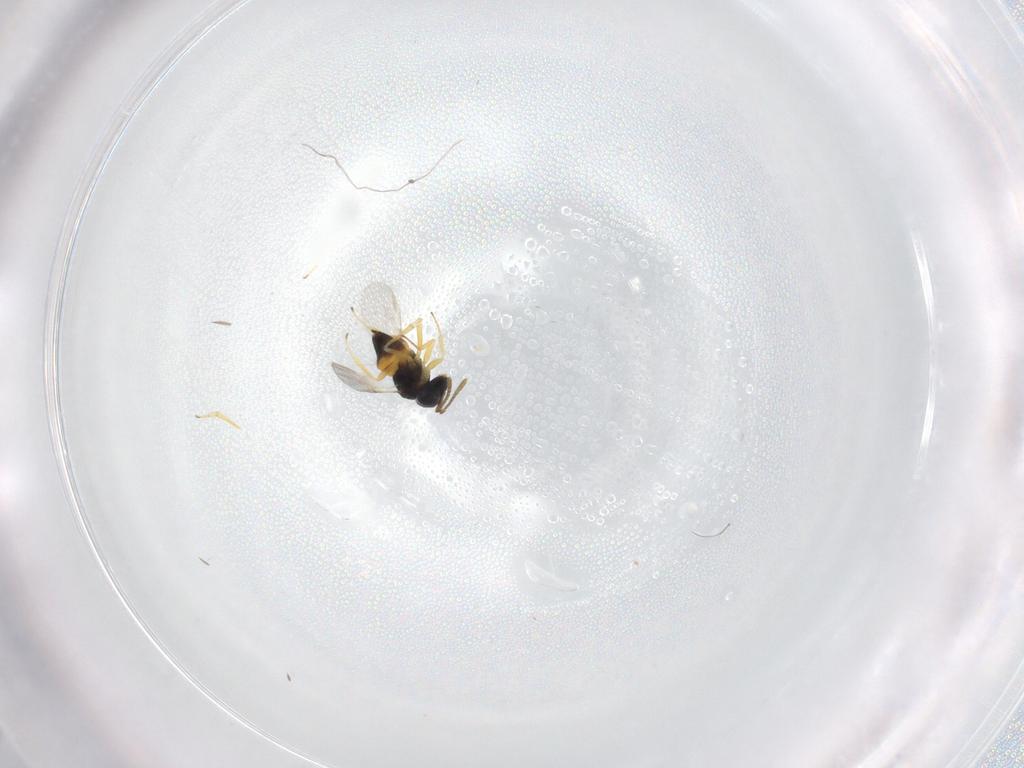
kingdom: Animalia
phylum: Arthropoda
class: Insecta
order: Hymenoptera
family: Encyrtidae
